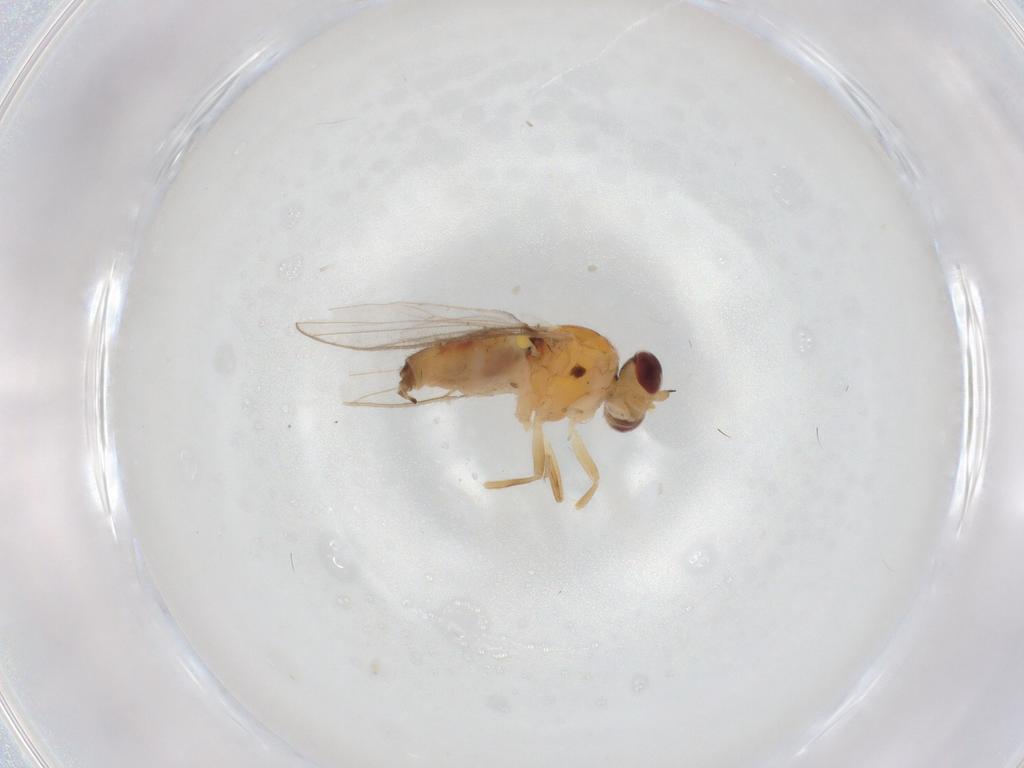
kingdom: Animalia
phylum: Arthropoda
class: Insecta
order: Diptera
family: Chloropidae
